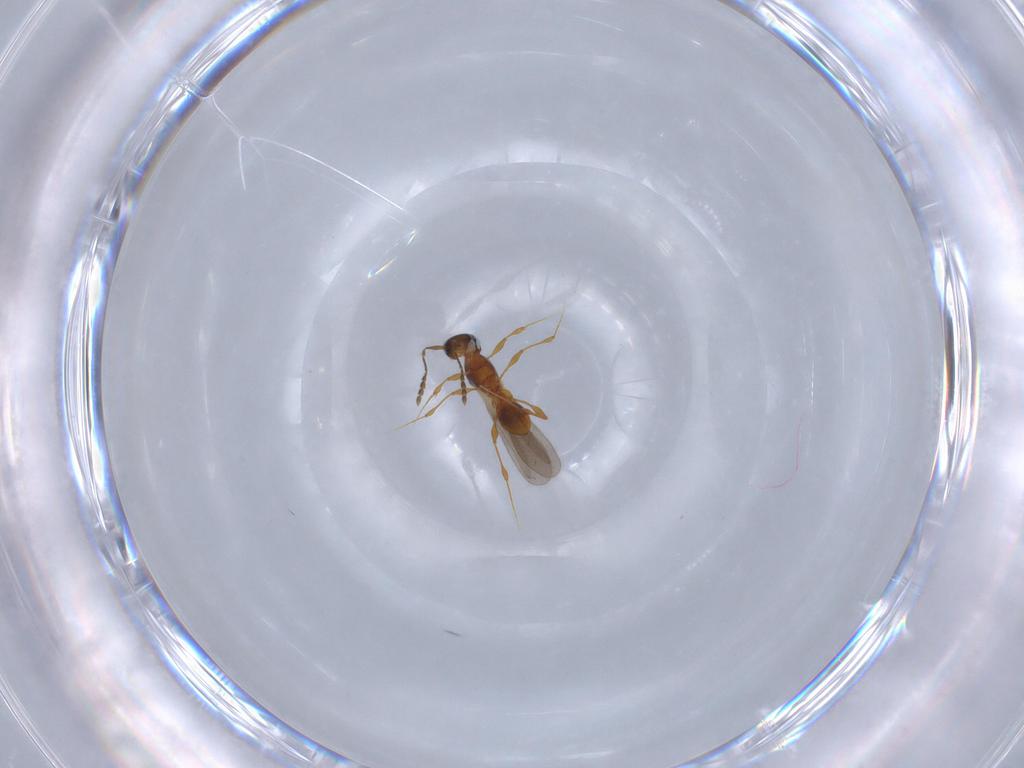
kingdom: Animalia
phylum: Arthropoda
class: Insecta
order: Hymenoptera
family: Platygastridae
